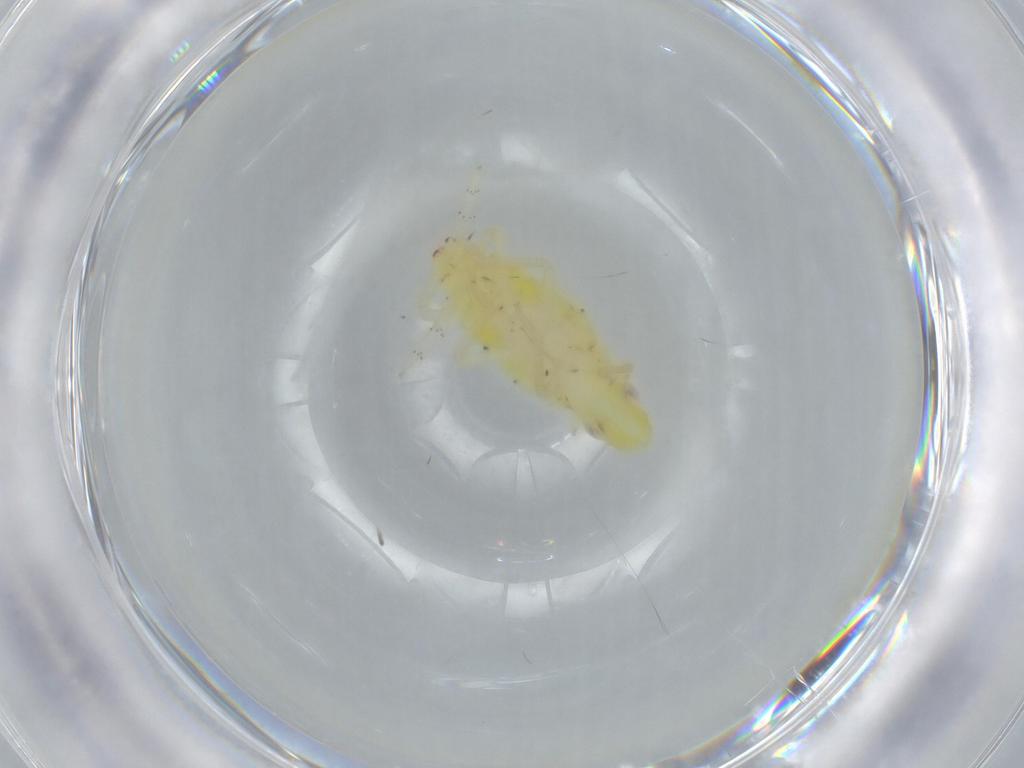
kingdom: Animalia
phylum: Arthropoda
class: Insecta
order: Hemiptera
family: Tropiduchidae
